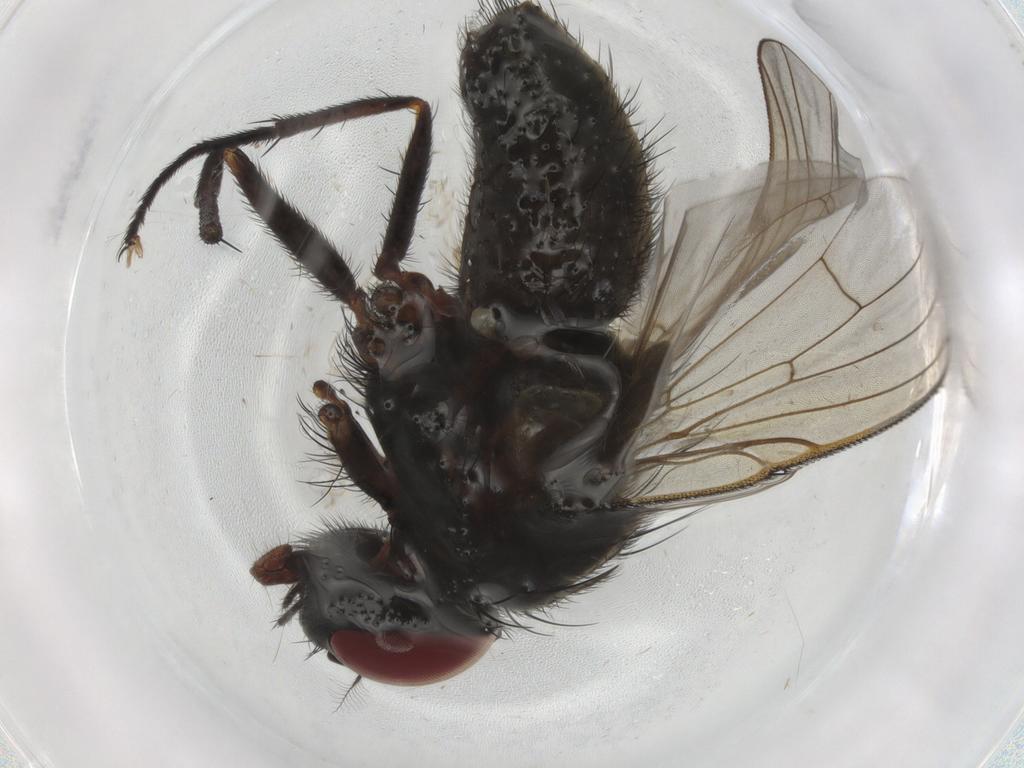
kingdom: Animalia
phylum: Arthropoda
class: Insecta
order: Diptera
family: Muscidae
